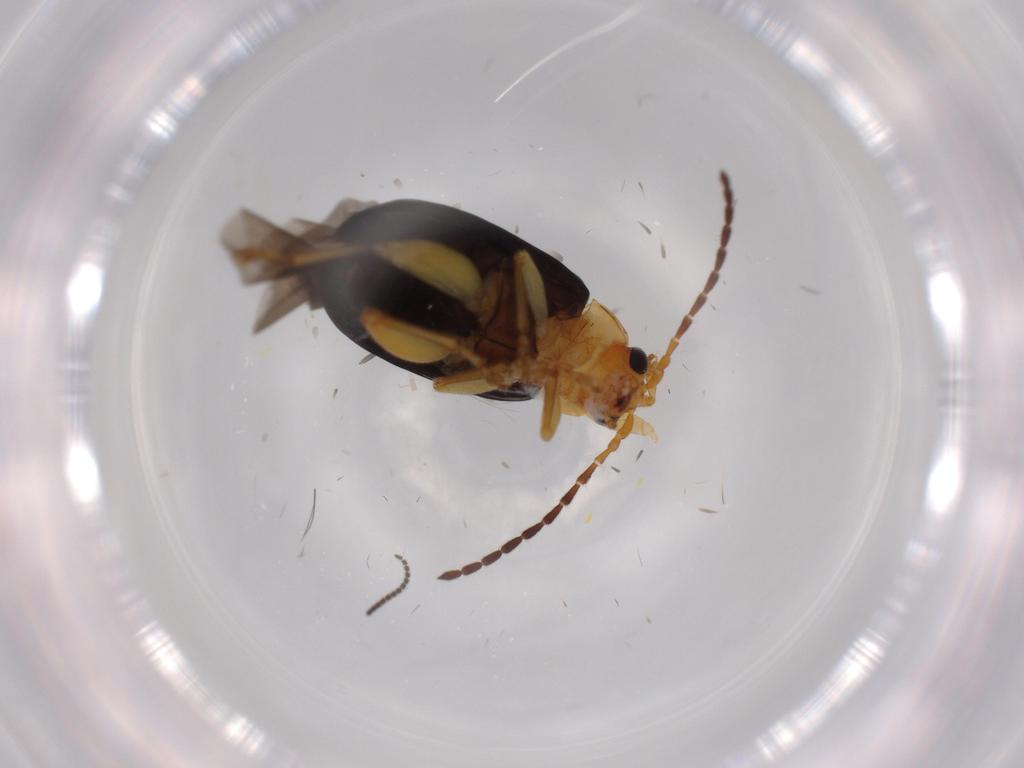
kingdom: Animalia
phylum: Arthropoda
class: Insecta
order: Coleoptera
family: Chrysomelidae
